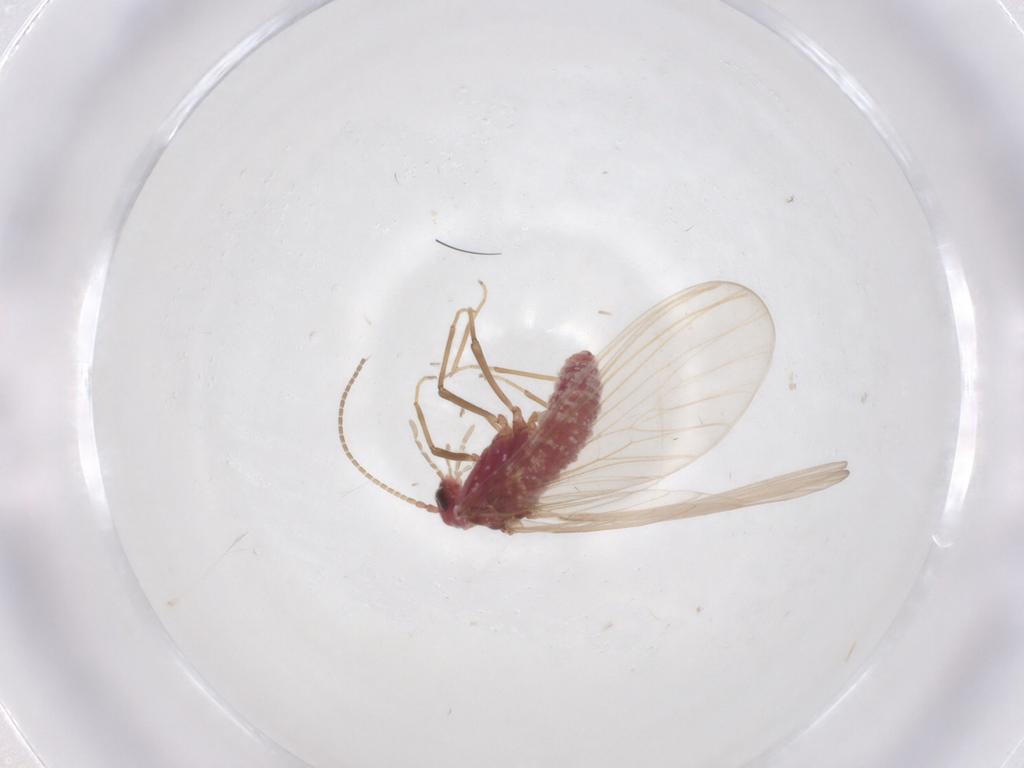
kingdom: Animalia
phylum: Arthropoda
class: Insecta
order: Neuroptera
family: Coniopterygidae
